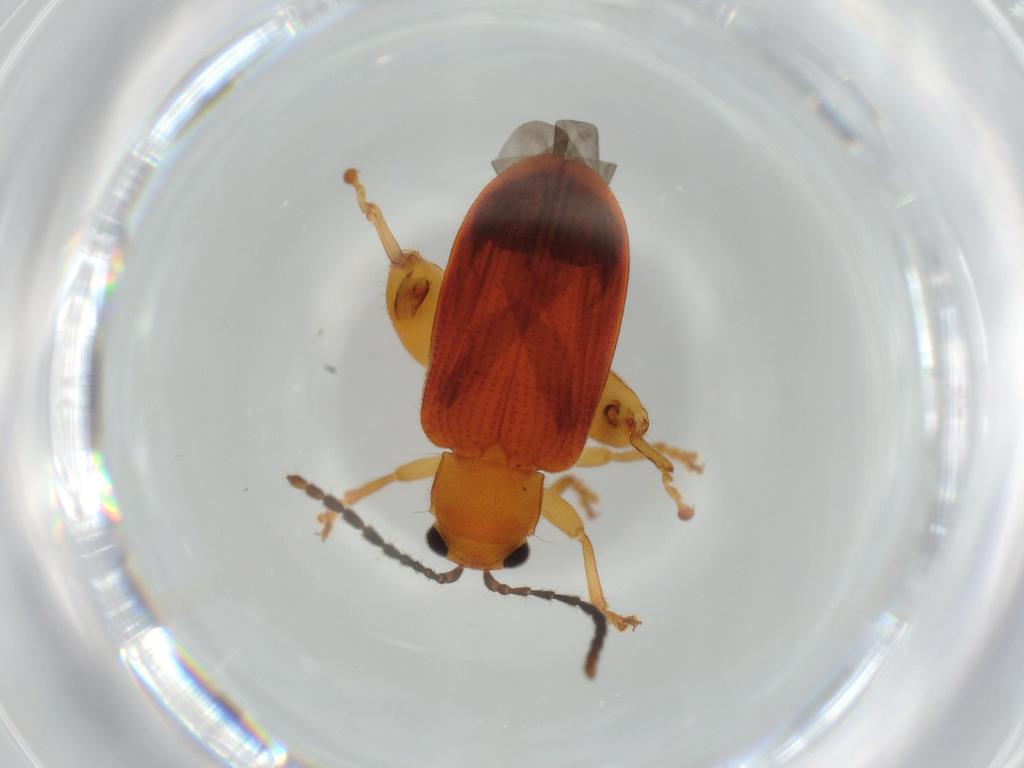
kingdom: Animalia
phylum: Arthropoda
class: Insecta
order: Coleoptera
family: Chrysomelidae
